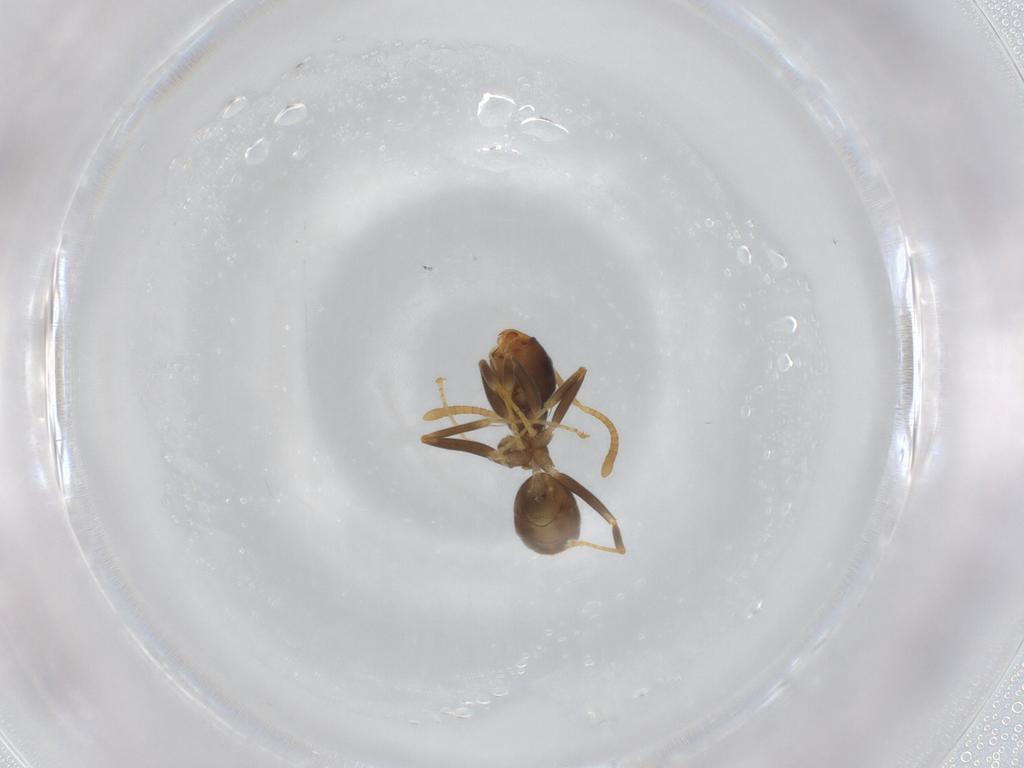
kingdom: Animalia
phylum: Arthropoda
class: Insecta
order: Hymenoptera
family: Formicidae
